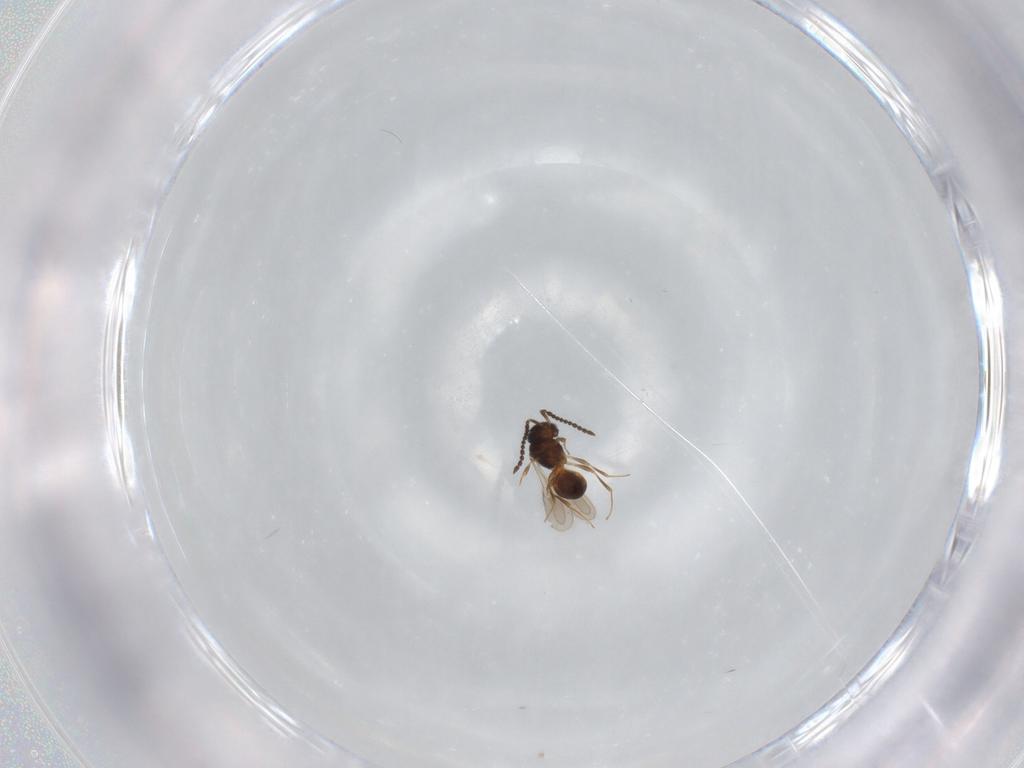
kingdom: Animalia
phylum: Arthropoda
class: Insecta
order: Hymenoptera
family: Scelionidae
